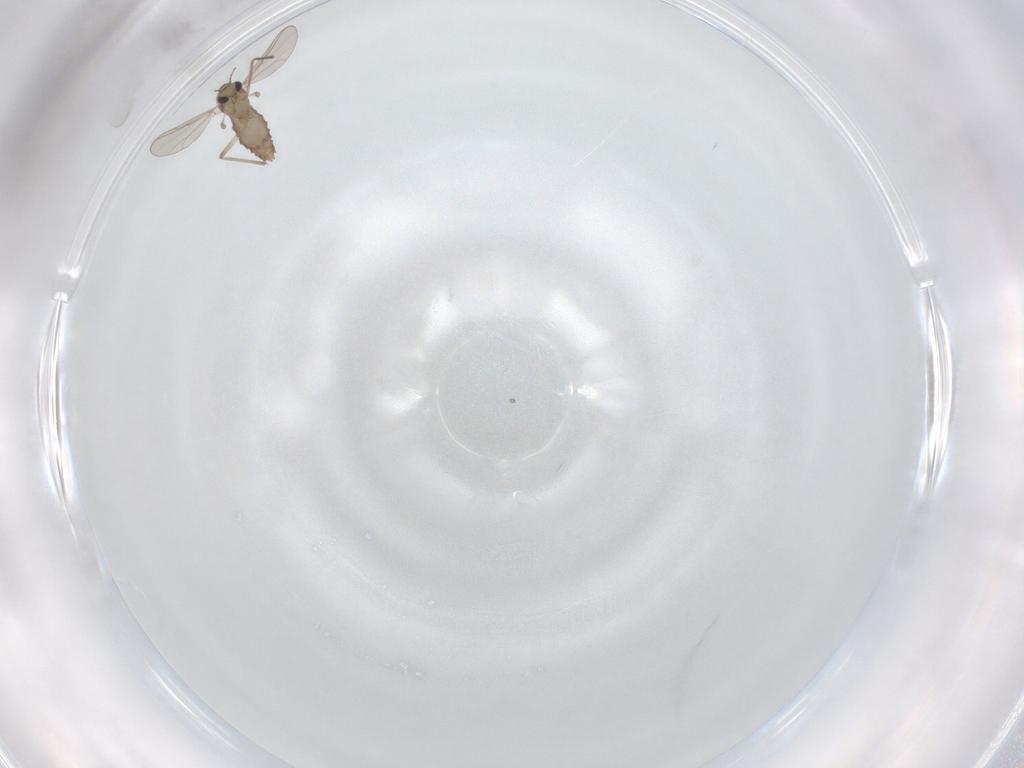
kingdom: Animalia
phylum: Arthropoda
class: Insecta
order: Diptera
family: Chironomidae
